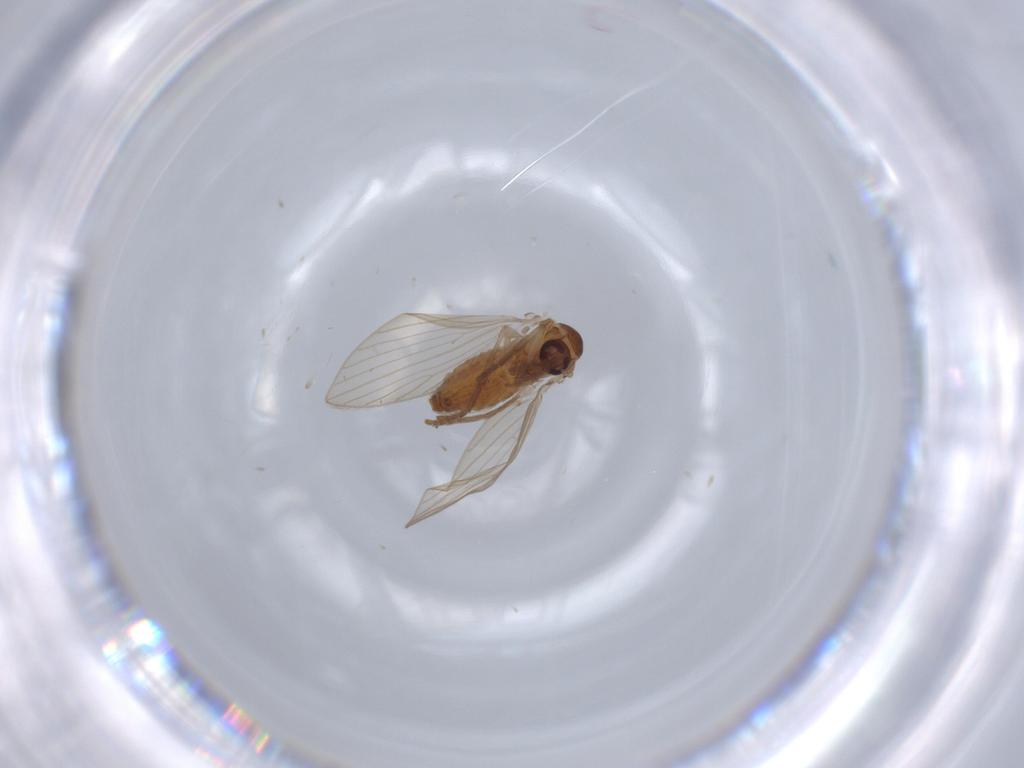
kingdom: Animalia
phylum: Arthropoda
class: Insecta
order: Diptera
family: Psychodidae
